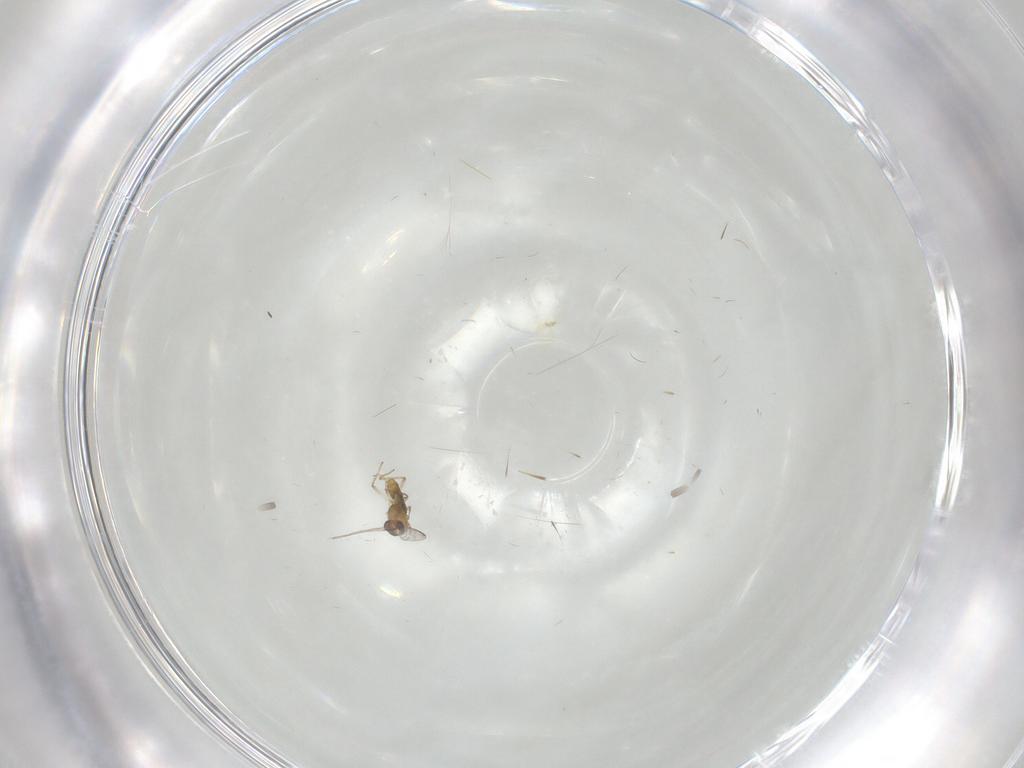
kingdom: Animalia
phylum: Arthropoda
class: Insecta
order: Diptera
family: Chironomidae
